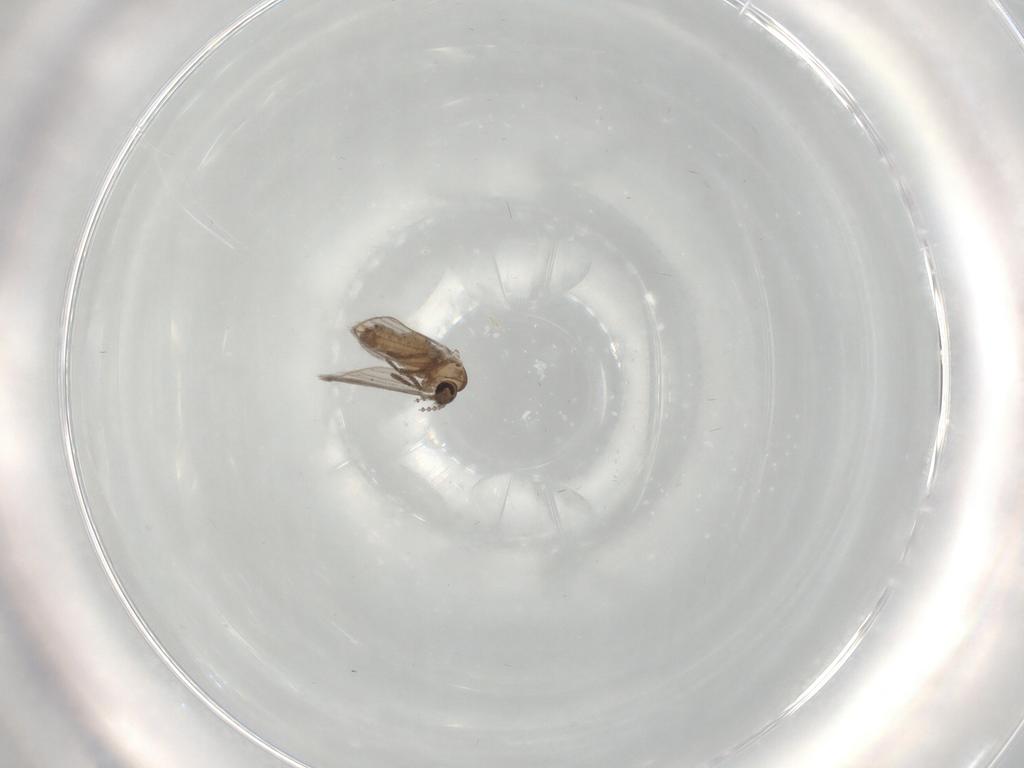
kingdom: Animalia
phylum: Arthropoda
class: Insecta
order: Diptera
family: Psychodidae
